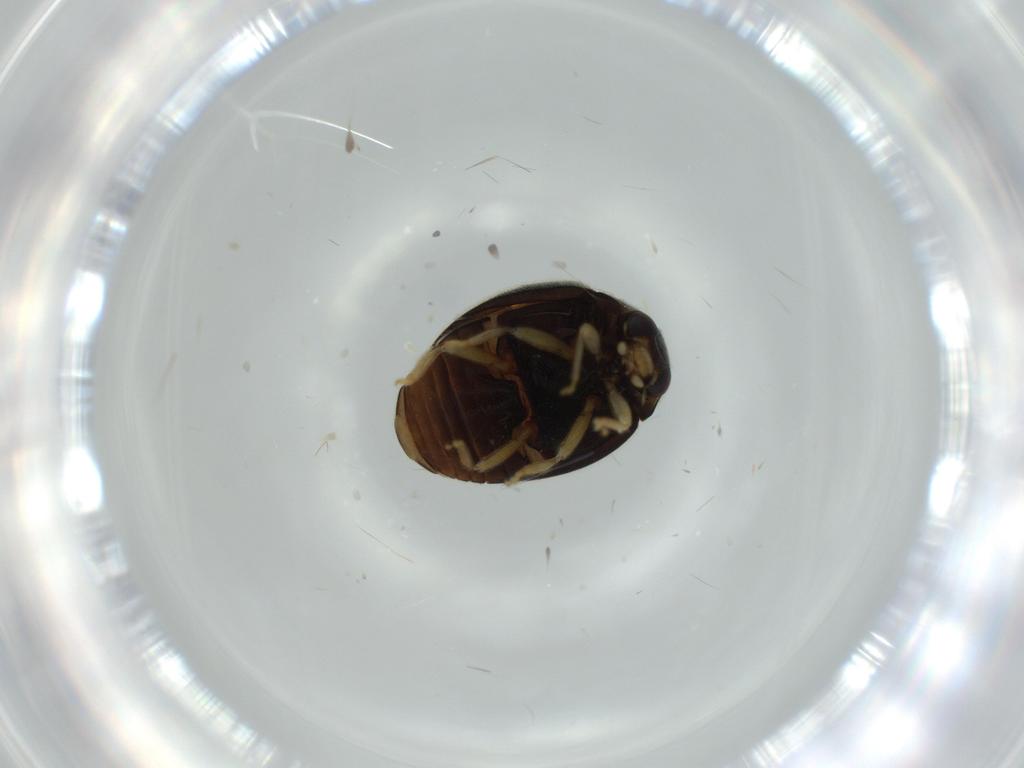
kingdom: Animalia
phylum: Arthropoda
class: Insecta
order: Coleoptera
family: Coccinellidae
